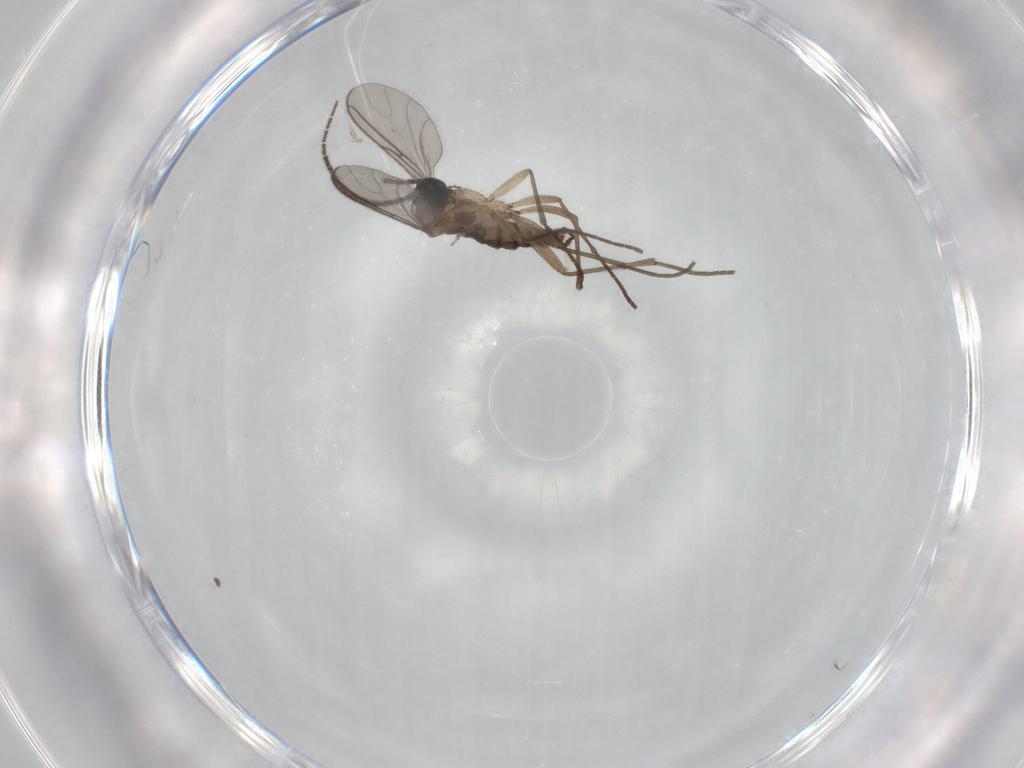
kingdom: Animalia
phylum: Arthropoda
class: Insecta
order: Diptera
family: Sciaridae
